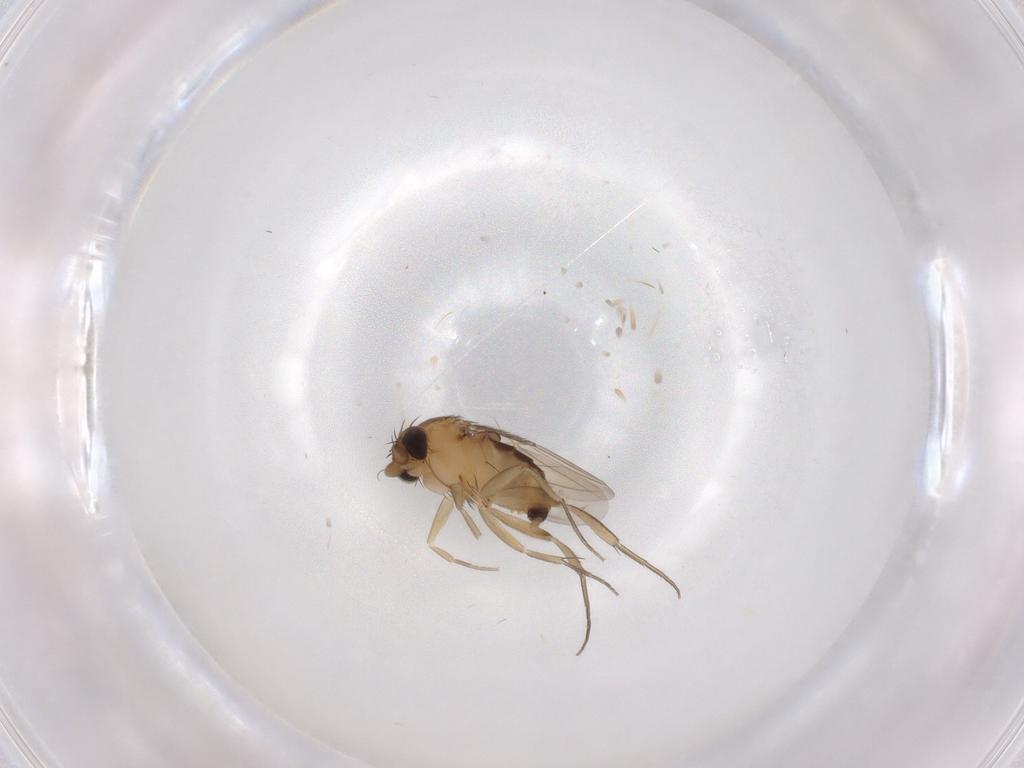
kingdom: Animalia
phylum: Arthropoda
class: Insecta
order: Diptera
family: Phoridae
